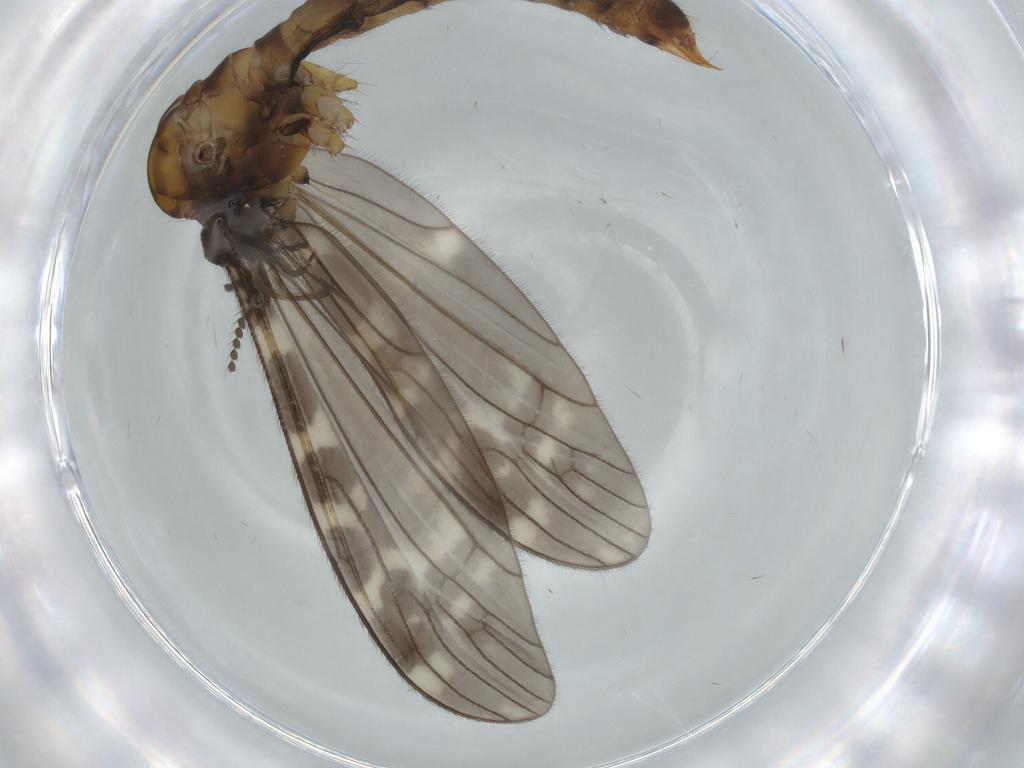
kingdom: Animalia
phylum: Arthropoda
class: Insecta
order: Diptera
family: Limoniidae
